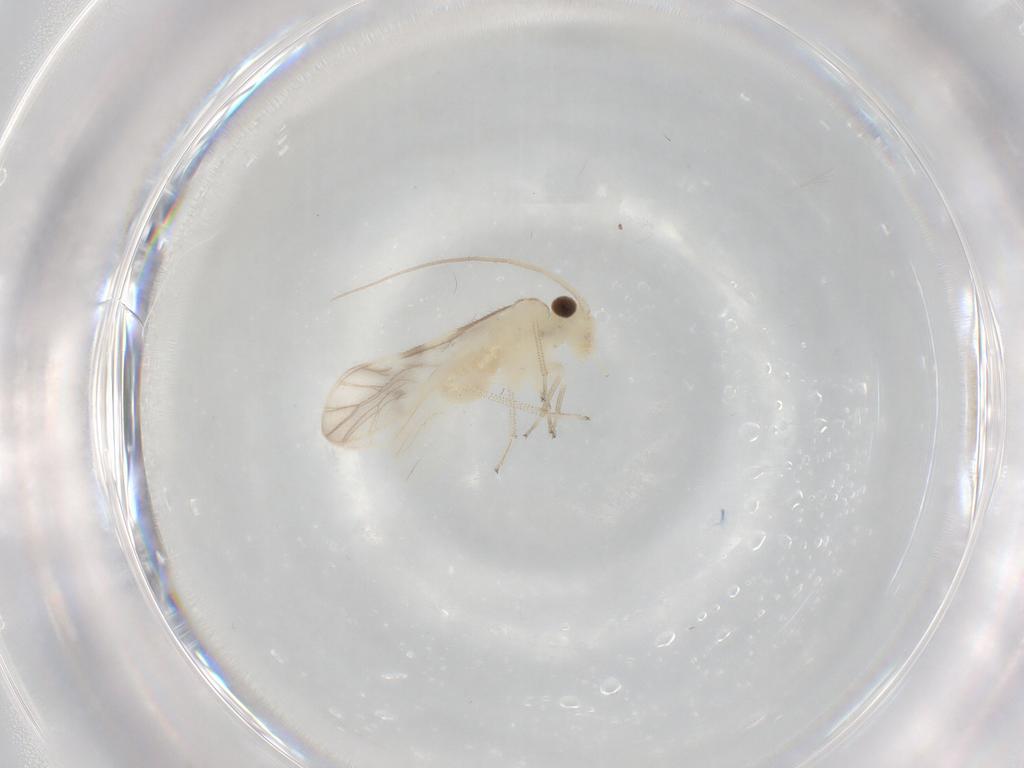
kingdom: Animalia
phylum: Arthropoda
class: Insecta
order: Psocodea
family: Caeciliusidae
